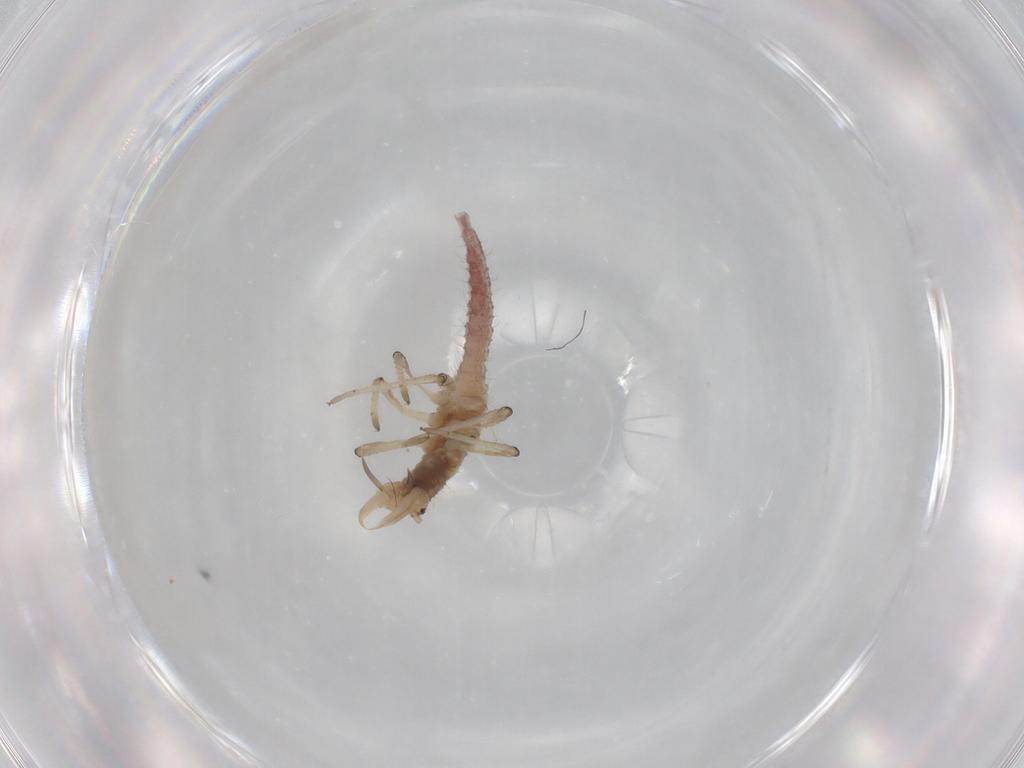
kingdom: Animalia
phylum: Arthropoda
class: Insecta
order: Neuroptera
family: Hemerobiidae
